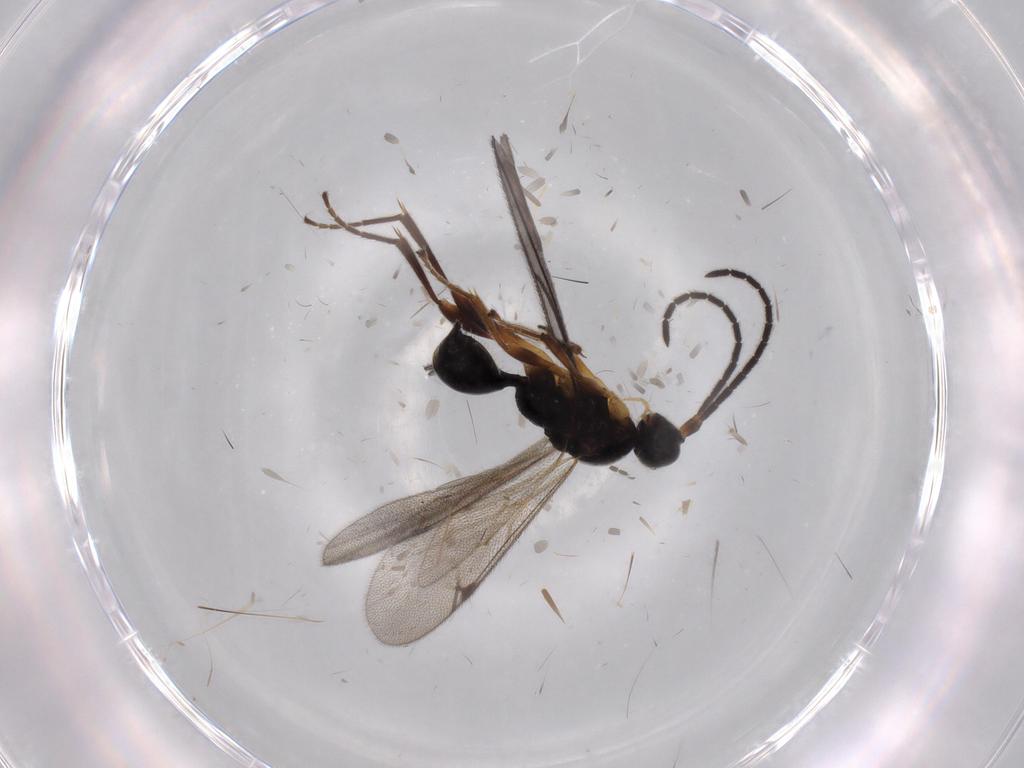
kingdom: Animalia
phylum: Arthropoda
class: Insecta
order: Hymenoptera
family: Proctotrupidae
